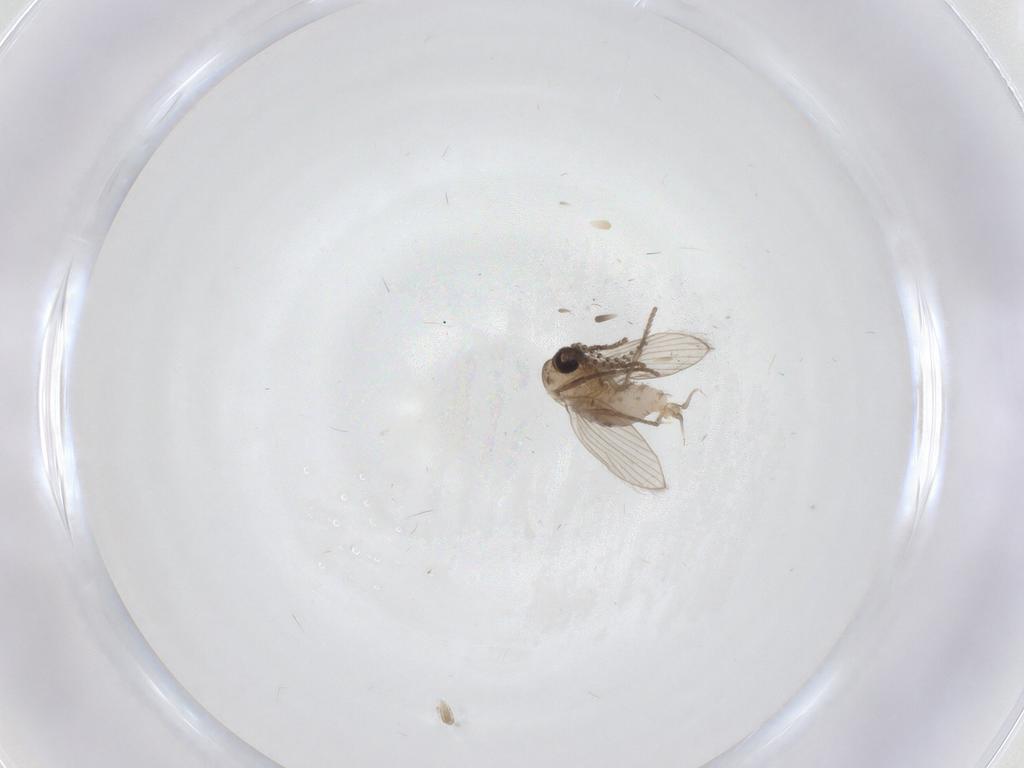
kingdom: Animalia
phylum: Arthropoda
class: Insecta
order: Diptera
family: Psychodidae
